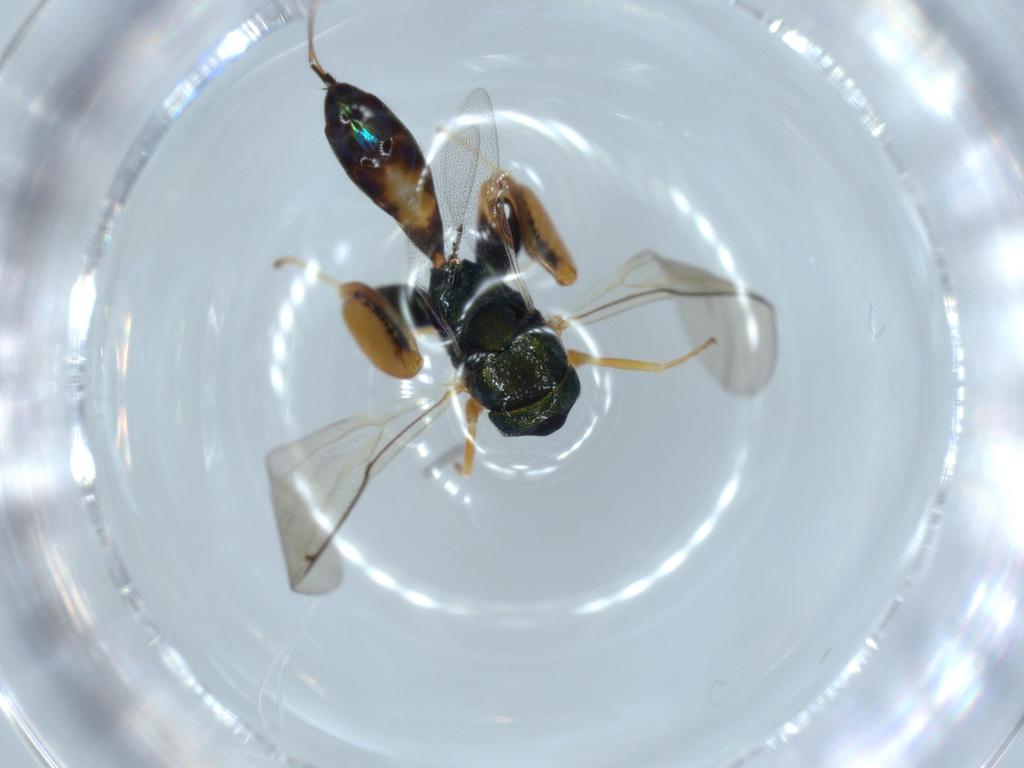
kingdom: Animalia
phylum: Arthropoda
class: Insecta
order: Hymenoptera
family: Torymidae
